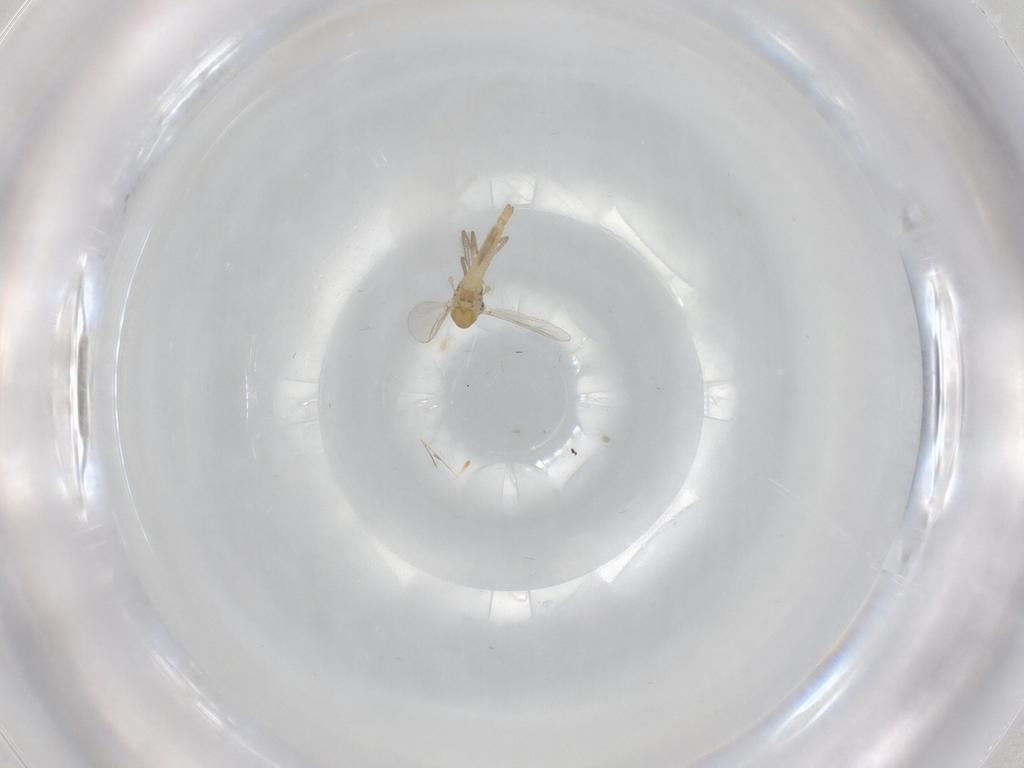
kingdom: Animalia
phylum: Arthropoda
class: Insecta
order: Diptera
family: Chironomidae
